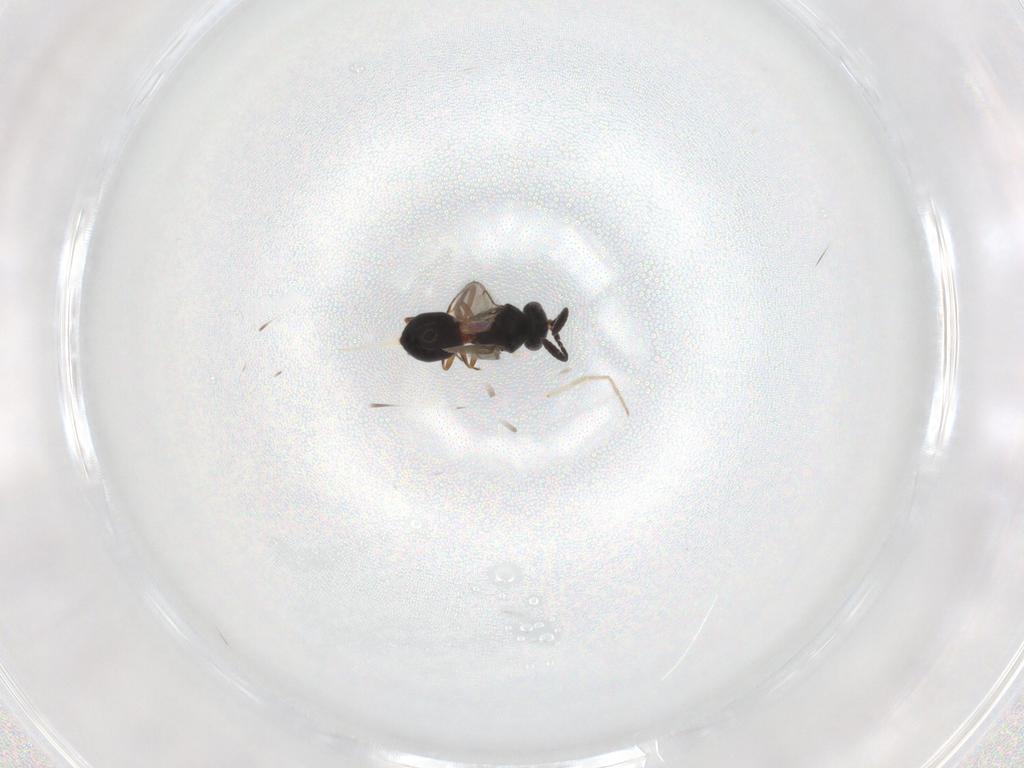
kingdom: Animalia
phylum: Arthropoda
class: Insecta
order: Hymenoptera
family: Scelionidae
